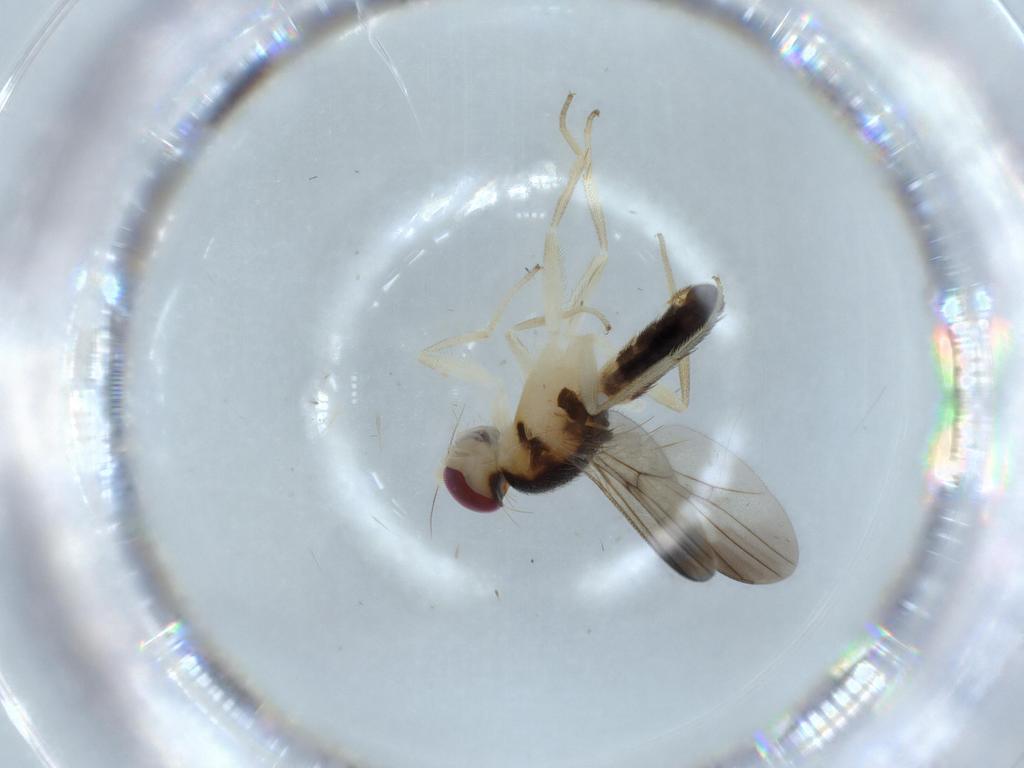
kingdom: Animalia
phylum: Arthropoda
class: Insecta
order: Diptera
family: Clusiidae
